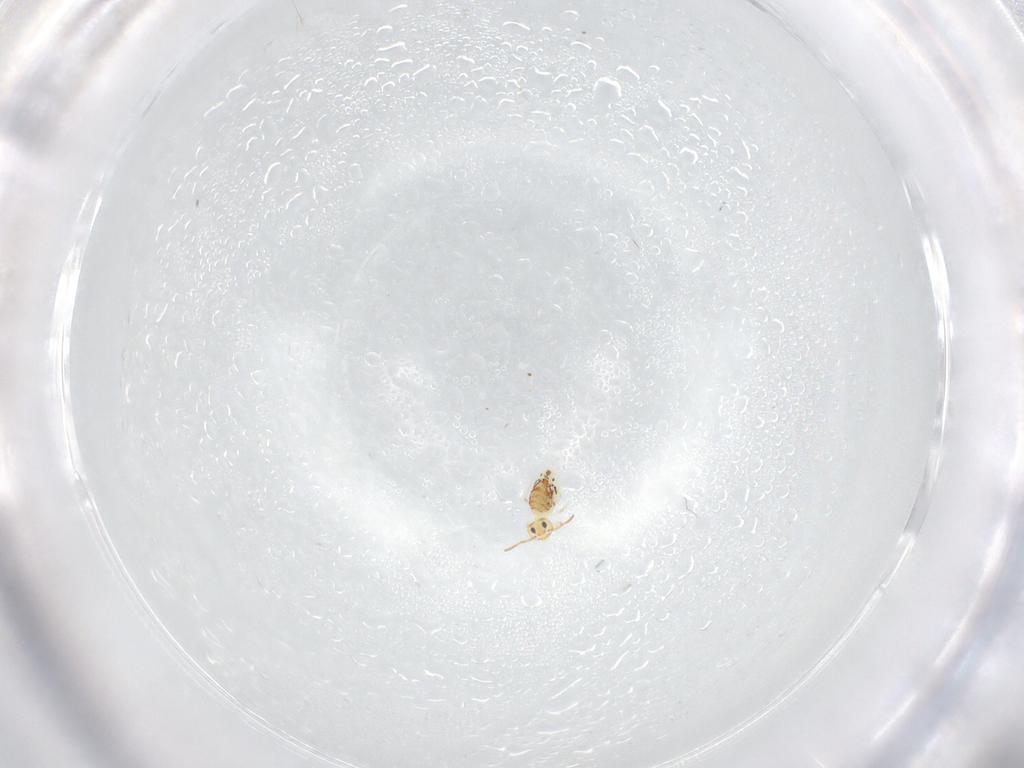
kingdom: Animalia
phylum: Arthropoda
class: Collembola
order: Symphypleona
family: Bourletiellidae
